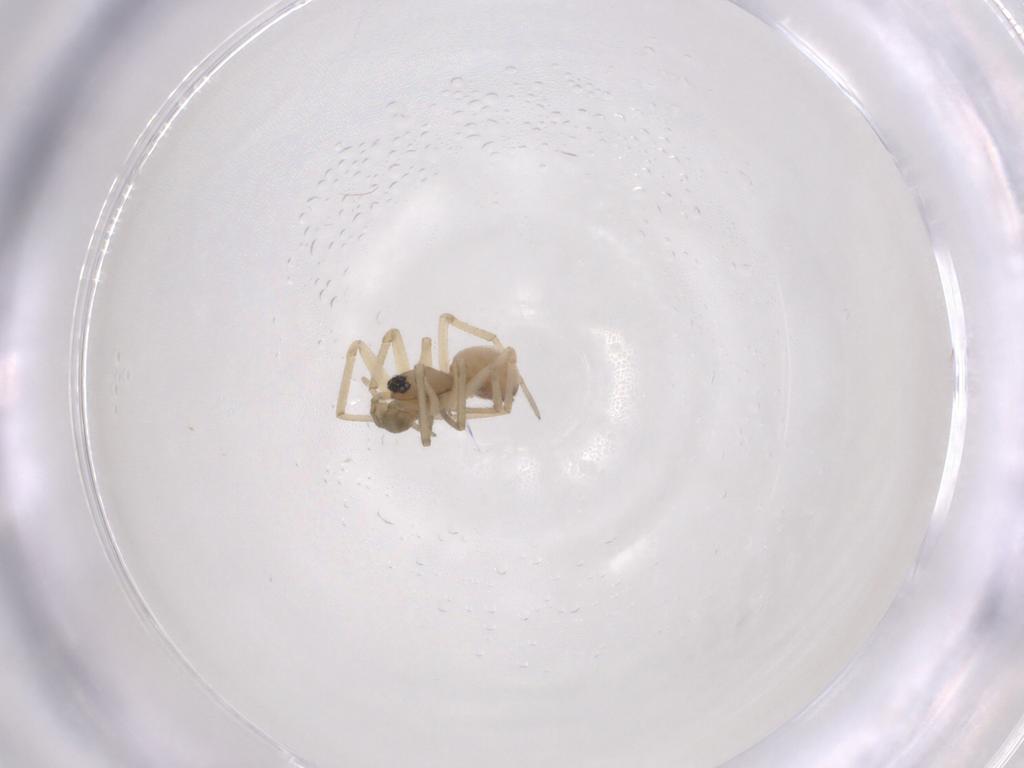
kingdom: Animalia
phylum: Arthropoda
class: Arachnida
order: Araneae
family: Linyphiidae
